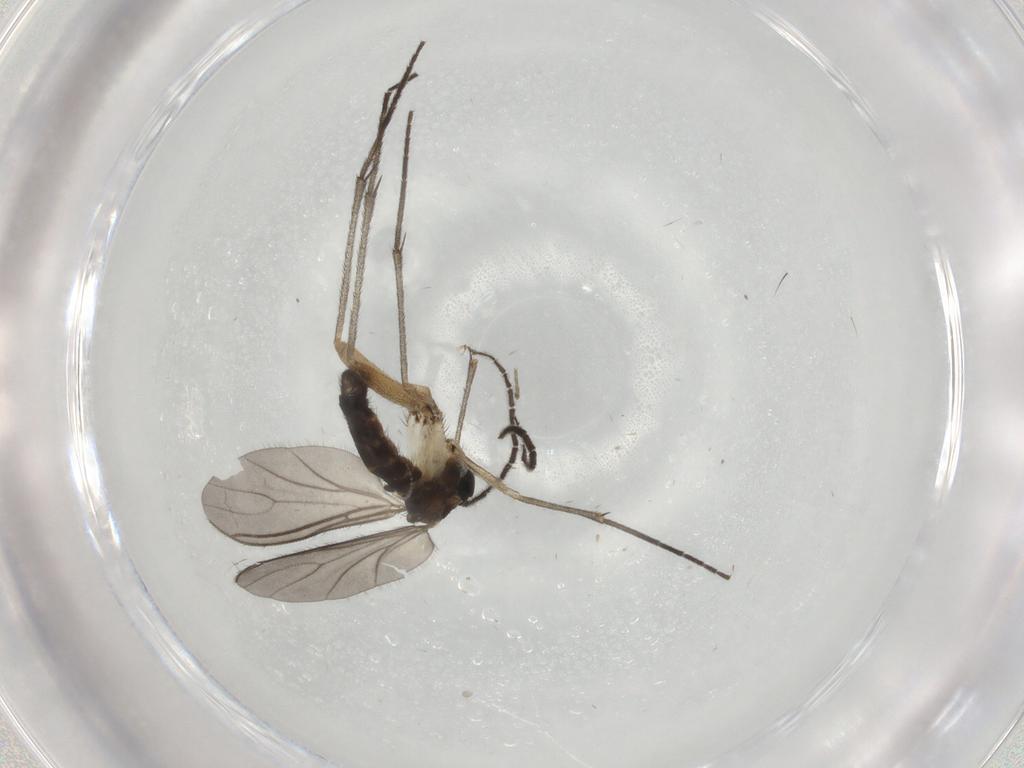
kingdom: Animalia
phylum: Arthropoda
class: Insecta
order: Diptera
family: Sciaridae
